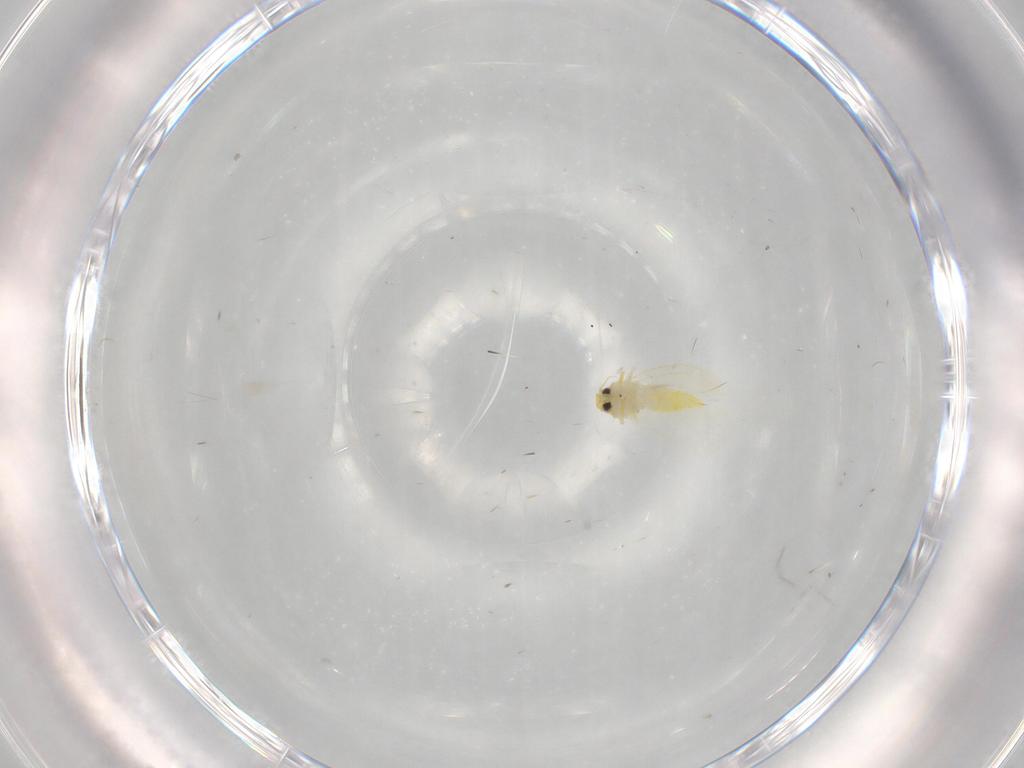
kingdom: Animalia
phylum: Arthropoda
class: Insecta
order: Hemiptera
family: Aleyrodidae
